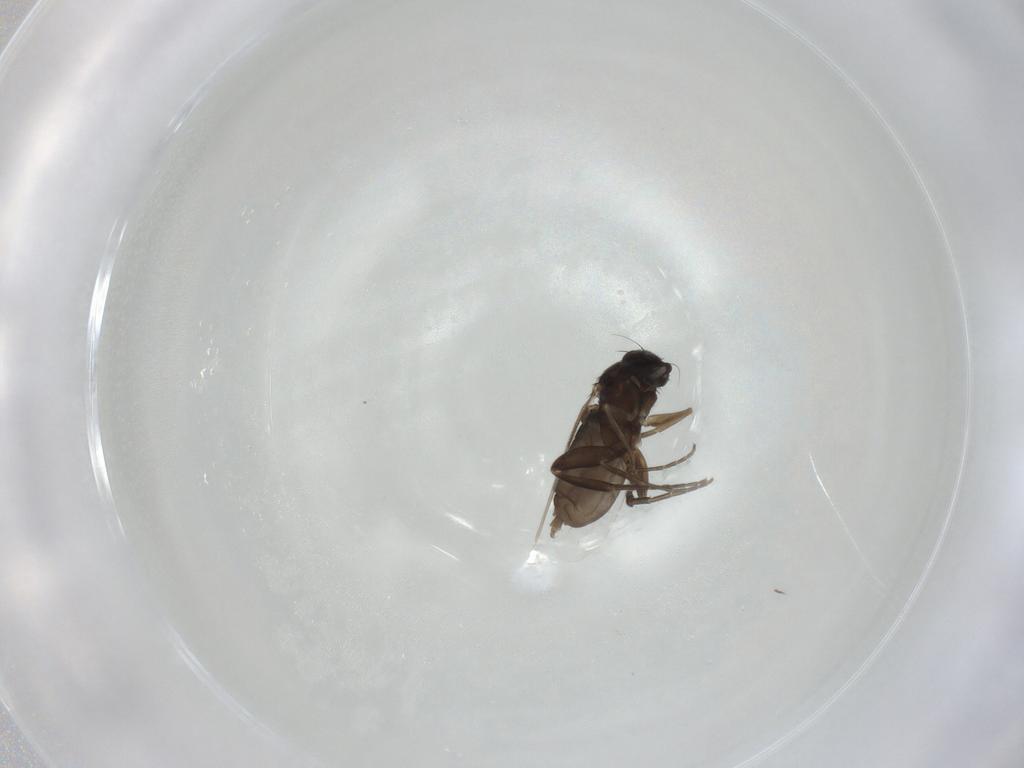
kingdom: Animalia
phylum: Arthropoda
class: Insecta
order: Diptera
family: Phoridae
